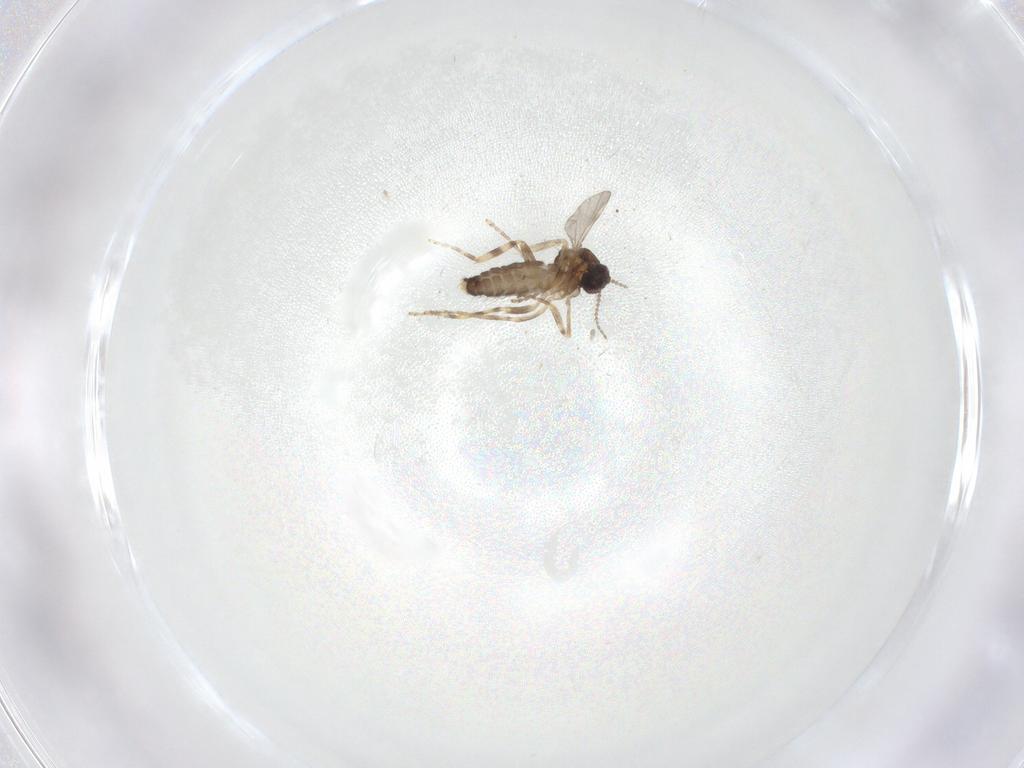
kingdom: Animalia
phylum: Arthropoda
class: Insecta
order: Diptera
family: Ceratopogonidae
